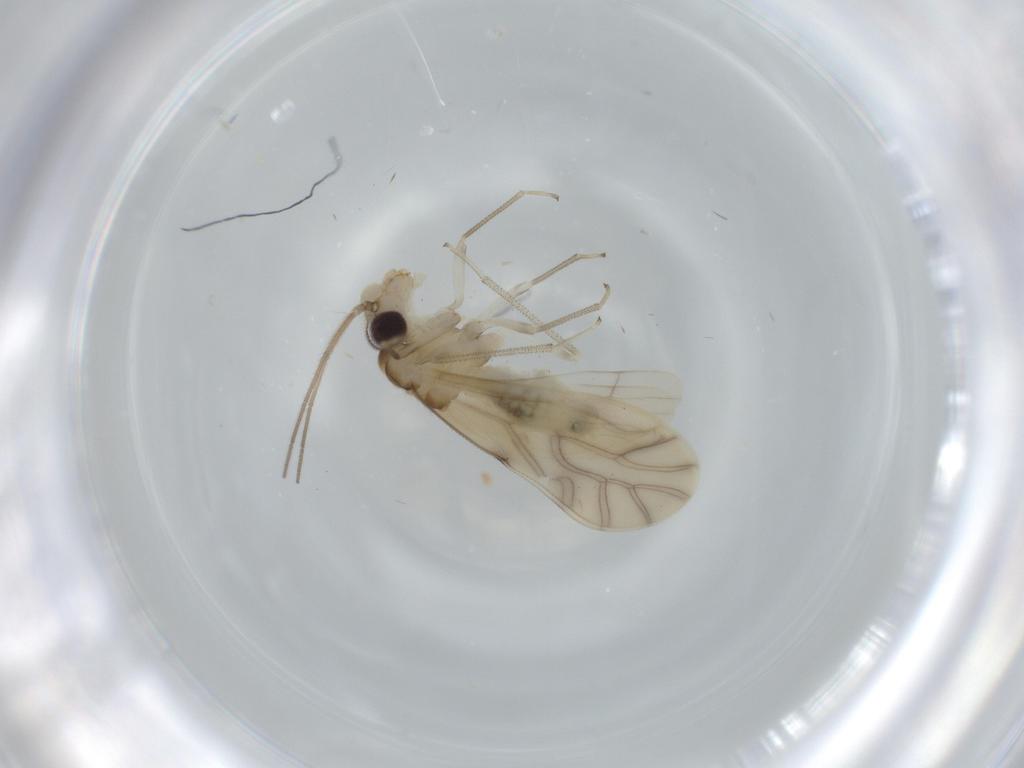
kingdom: Animalia
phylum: Arthropoda
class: Insecta
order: Psocodea
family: Caeciliusidae
